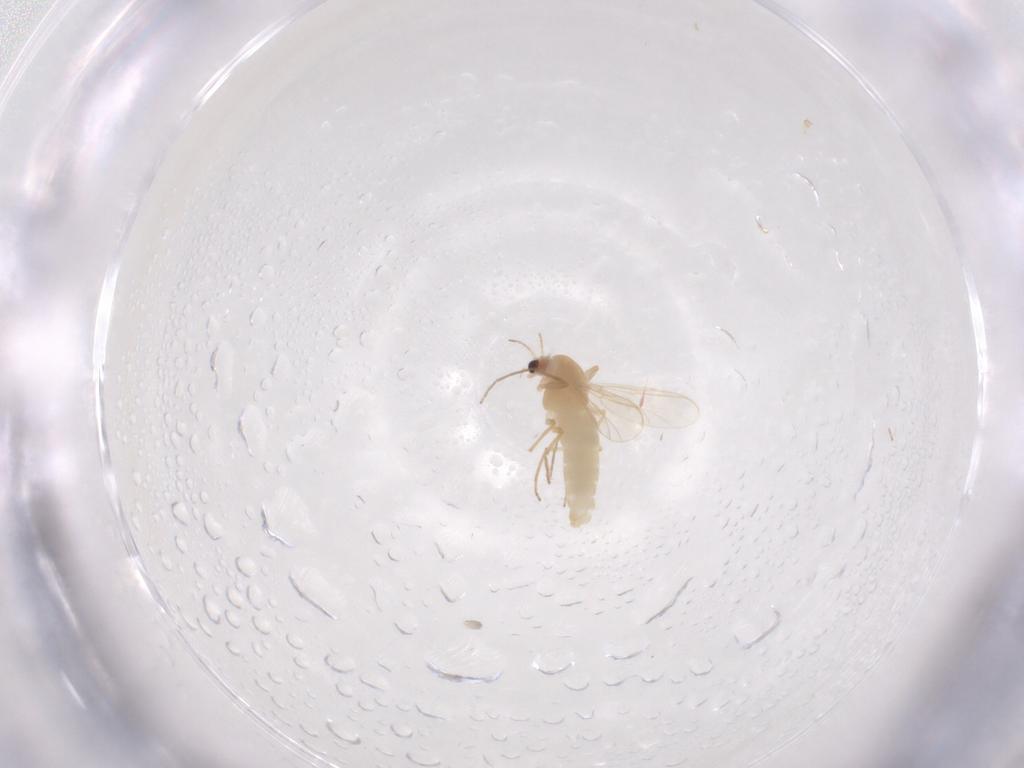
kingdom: Animalia
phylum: Arthropoda
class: Insecta
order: Diptera
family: Chironomidae
